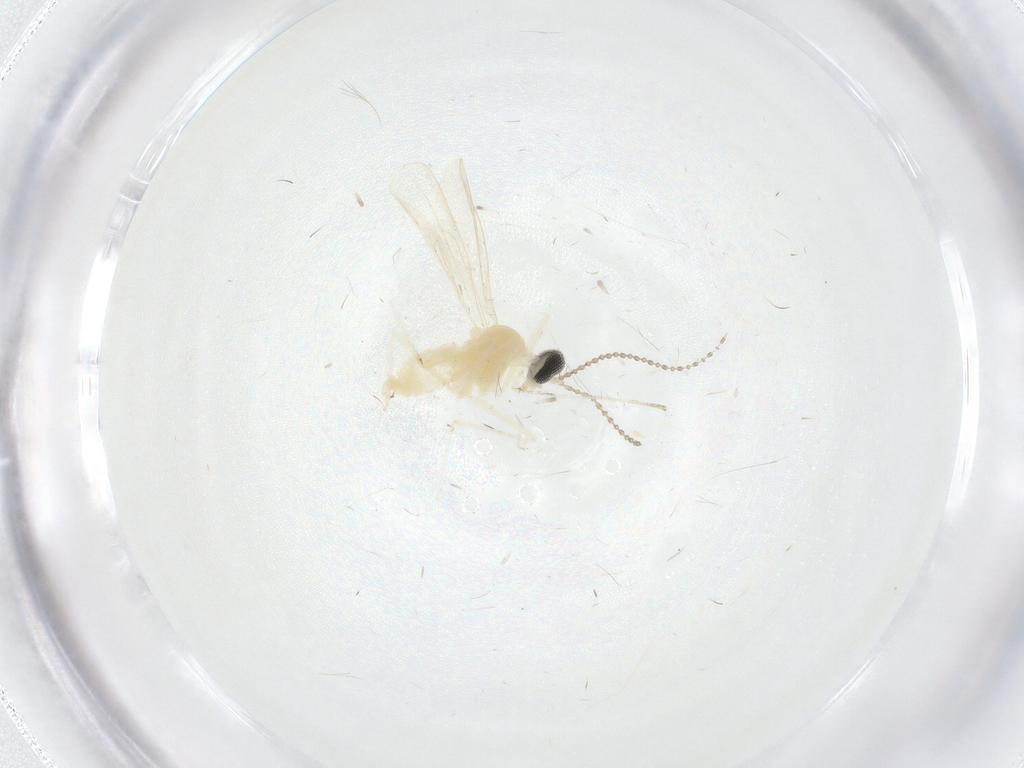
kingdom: Animalia
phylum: Arthropoda
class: Insecta
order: Diptera
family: Cecidomyiidae
